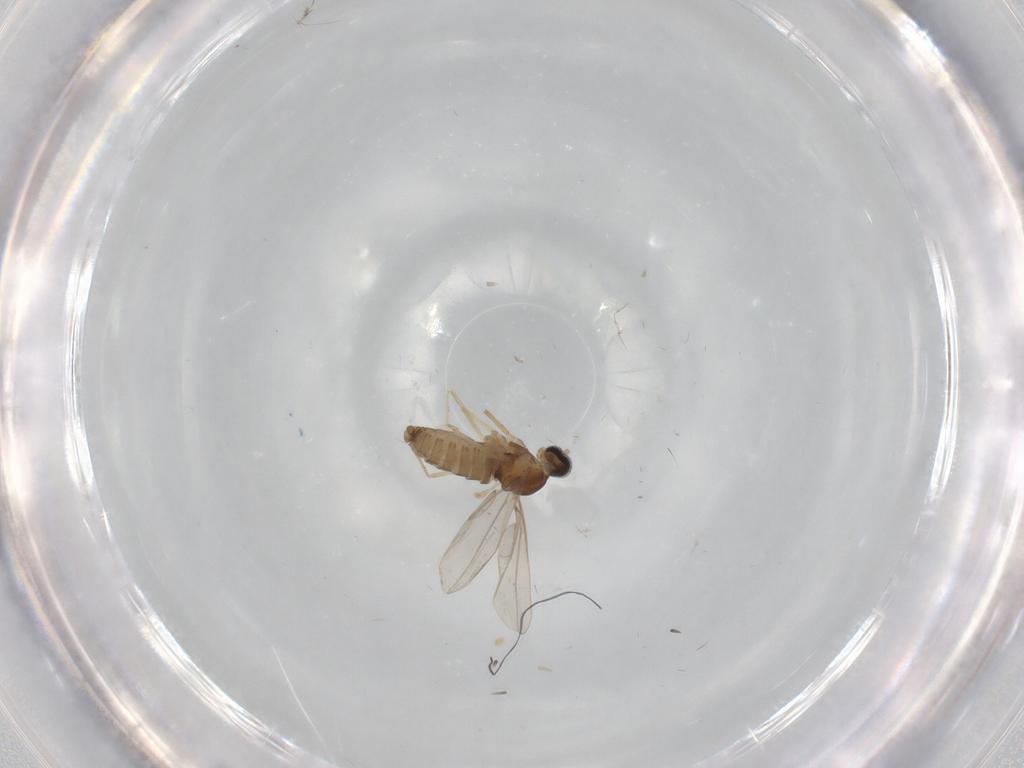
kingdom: Animalia
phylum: Arthropoda
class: Insecta
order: Diptera
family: Cecidomyiidae
